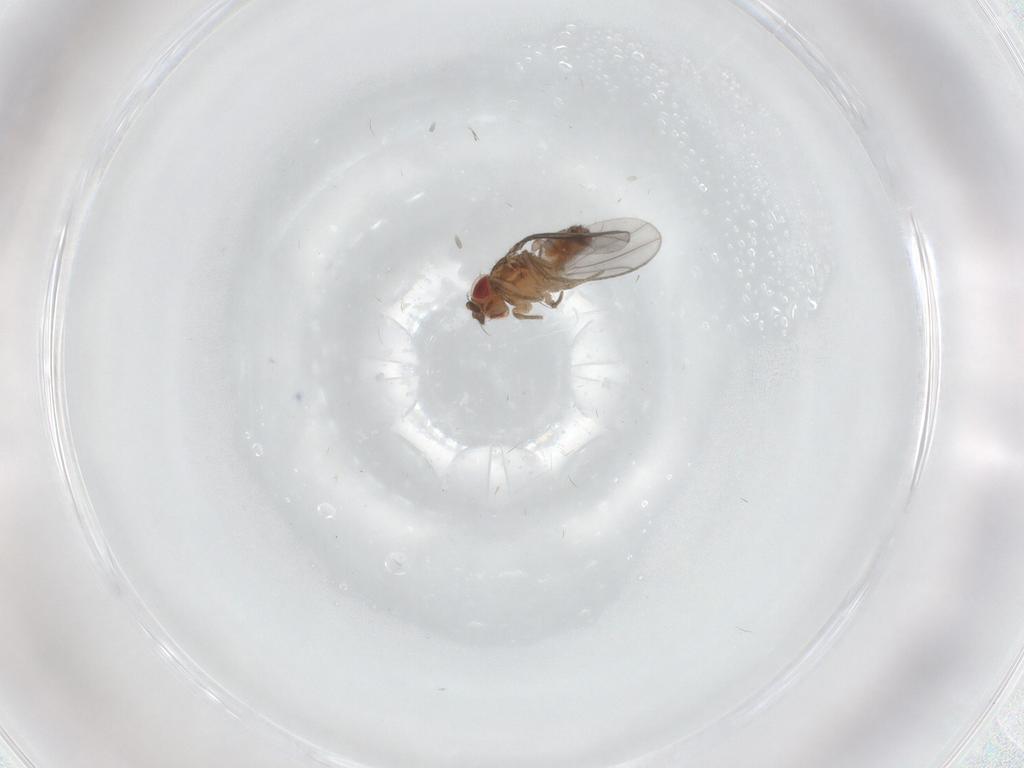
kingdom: Animalia
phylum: Arthropoda
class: Insecta
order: Diptera
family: Drosophilidae
